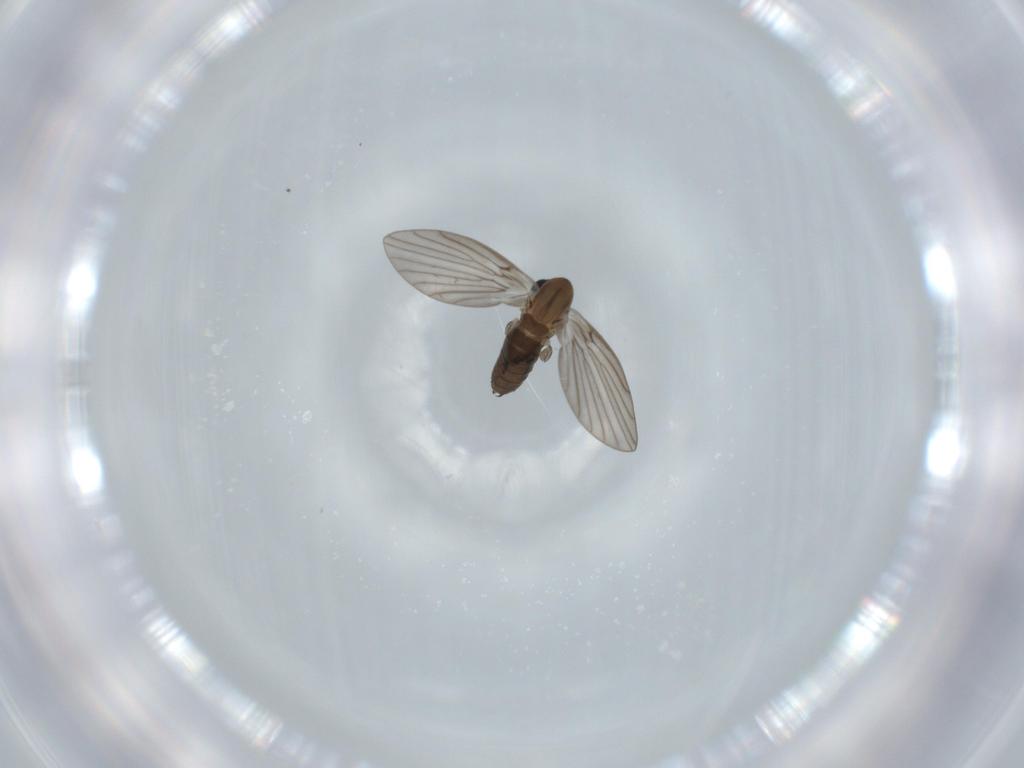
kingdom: Animalia
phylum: Arthropoda
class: Insecta
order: Diptera
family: Psychodidae
